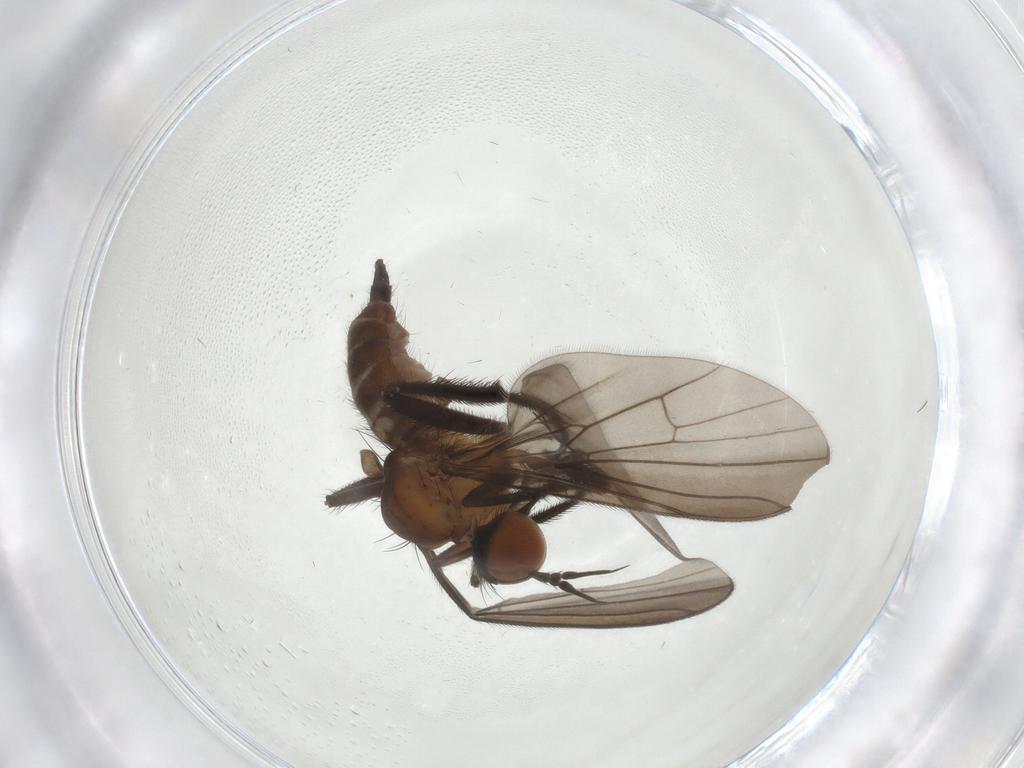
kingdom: Animalia
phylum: Arthropoda
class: Insecta
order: Diptera
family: Empididae
